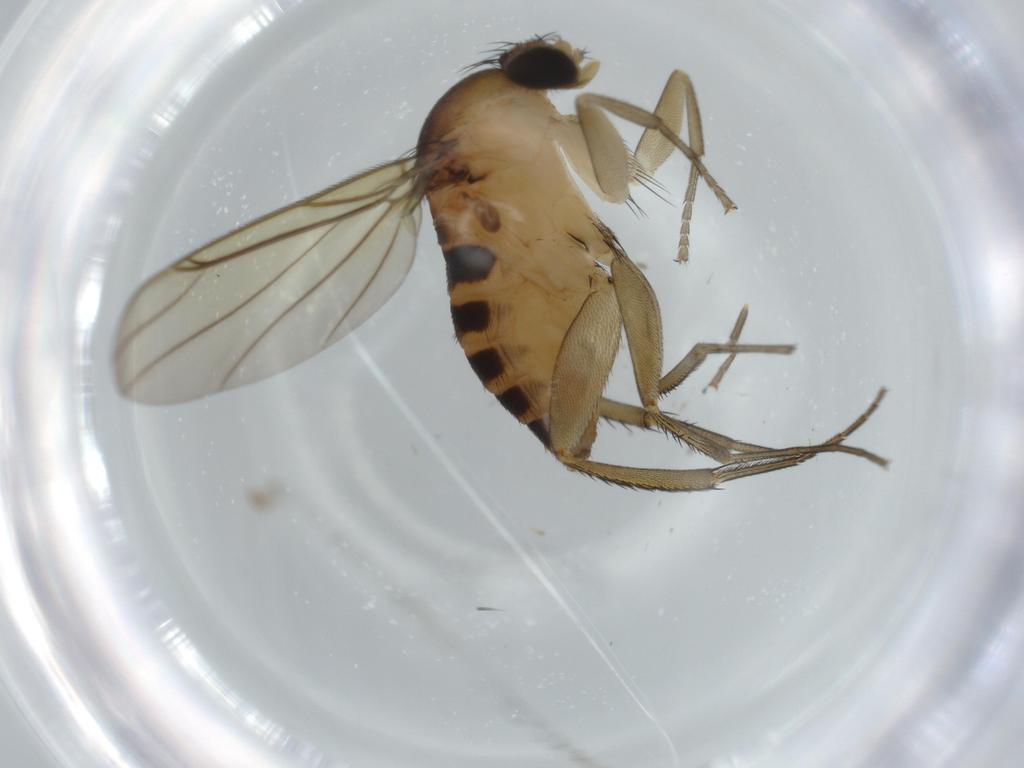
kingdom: Animalia
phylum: Arthropoda
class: Insecta
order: Diptera
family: Phoridae
